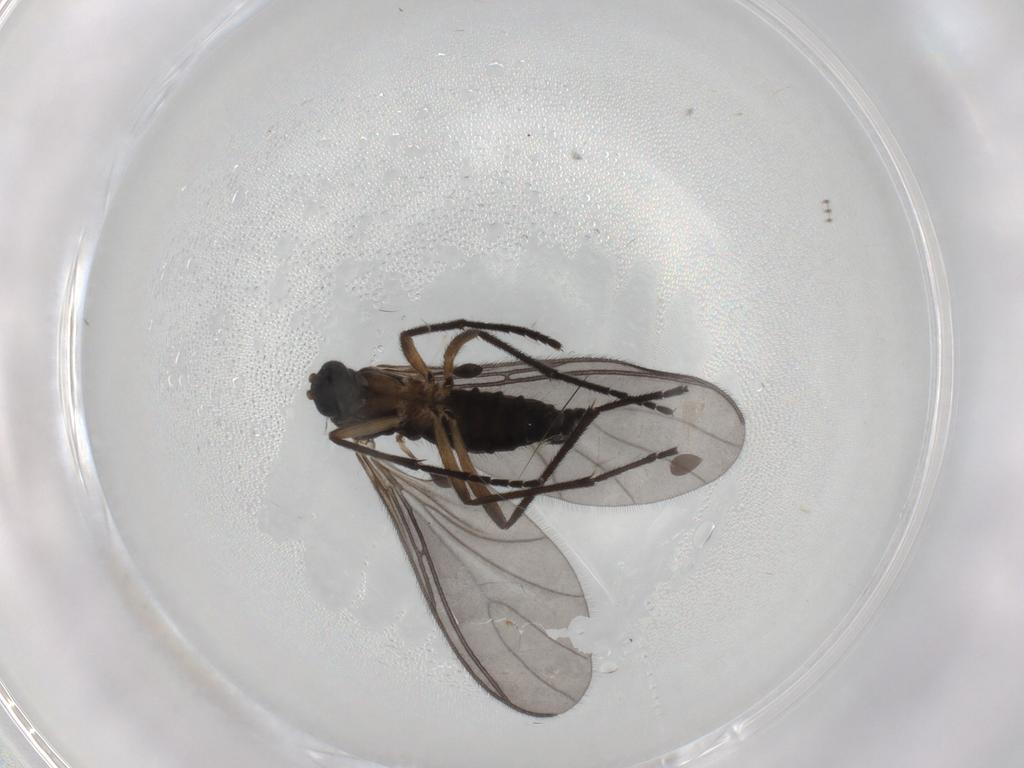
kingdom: Animalia
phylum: Arthropoda
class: Insecta
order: Diptera
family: Sciaridae
